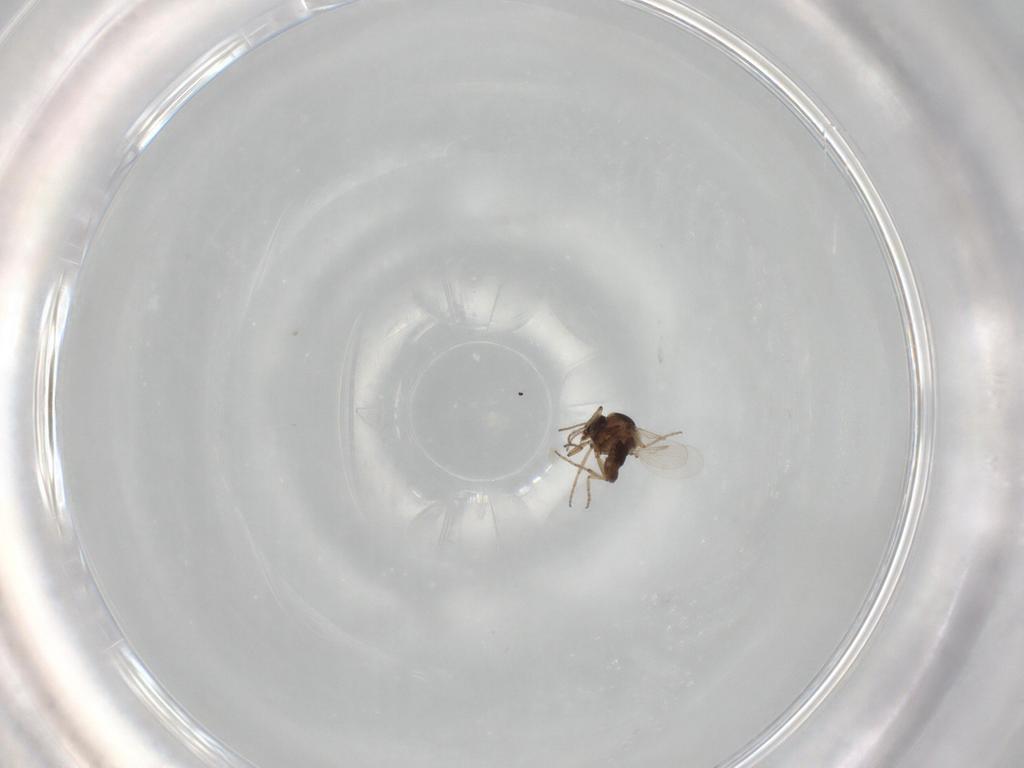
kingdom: Animalia
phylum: Arthropoda
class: Insecta
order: Diptera
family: Ceratopogonidae
